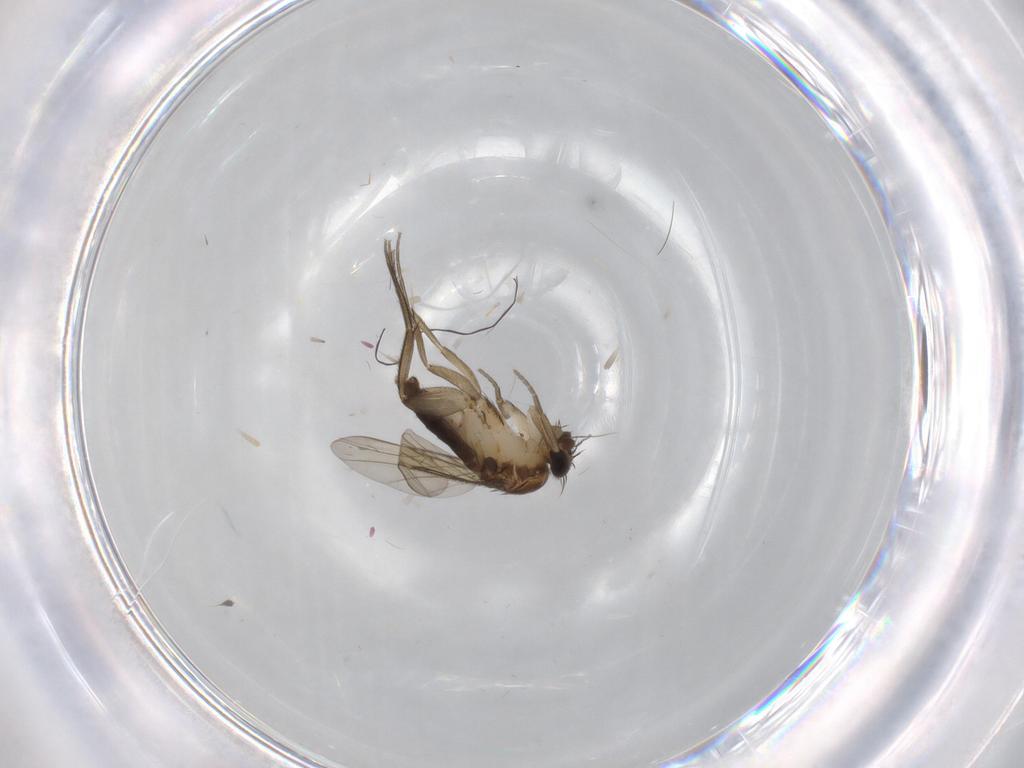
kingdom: Animalia
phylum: Arthropoda
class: Insecta
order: Diptera
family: Phoridae
